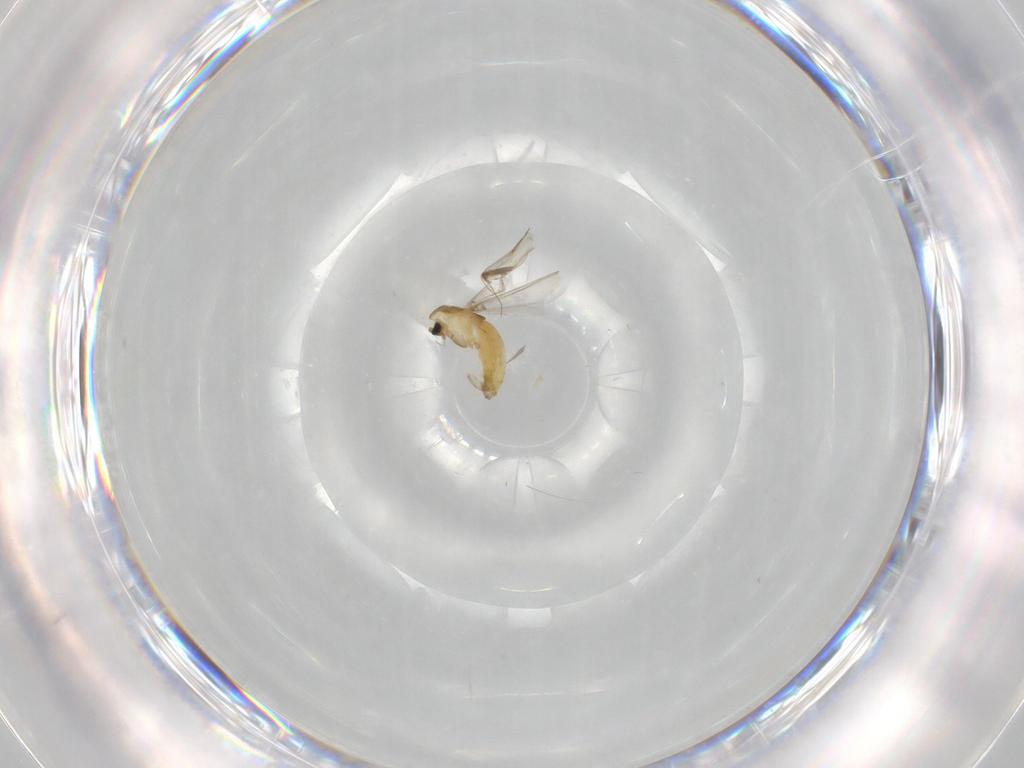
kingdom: Animalia
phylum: Arthropoda
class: Insecta
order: Diptera
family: Chironomidae
